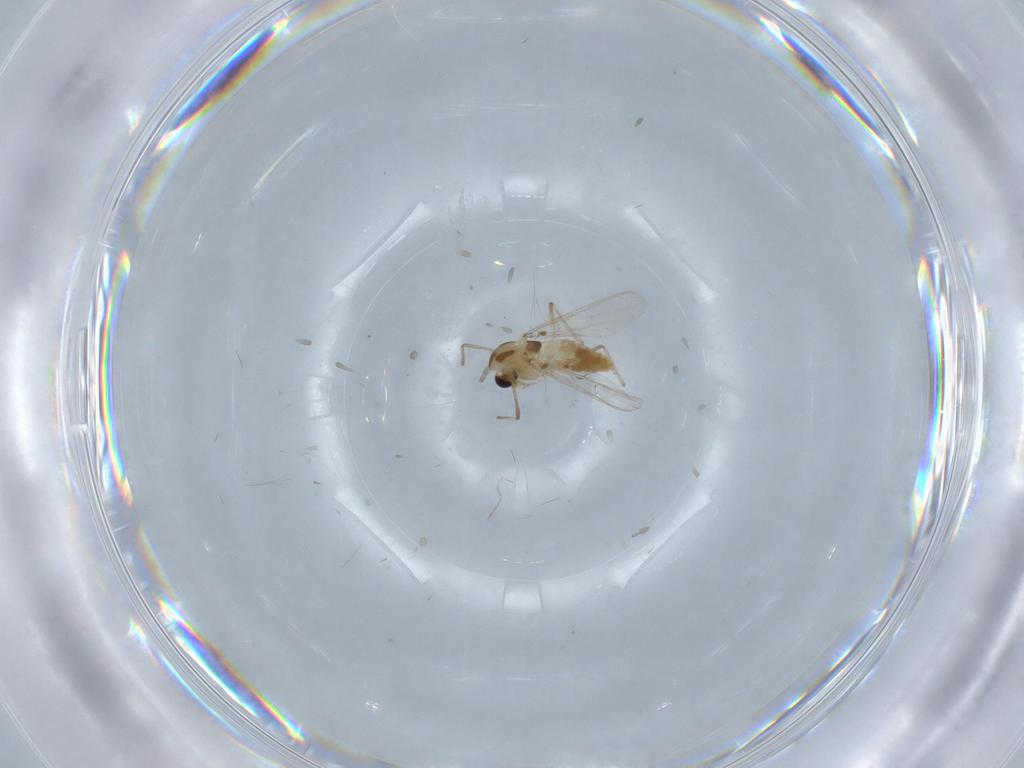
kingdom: Animalia
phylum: Arthropoda
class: Insecta
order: Diptera
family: Chironomidae
